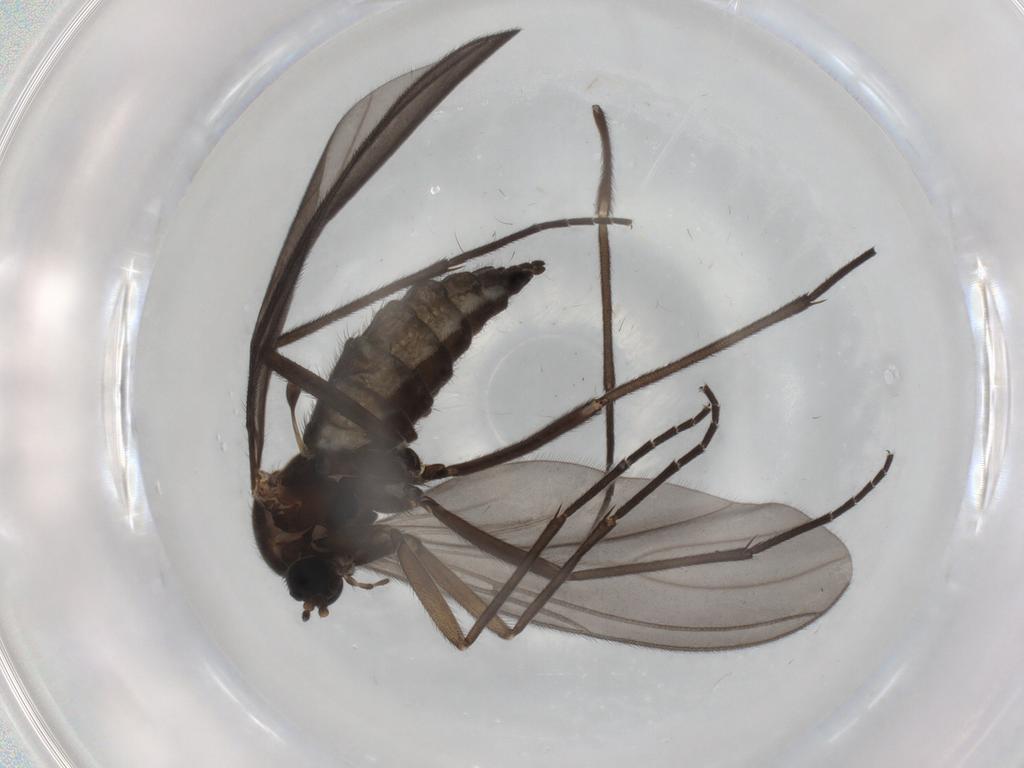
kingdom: Animalia
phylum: Arthropoda
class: Insecta
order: Diptera
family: Sciaridae
